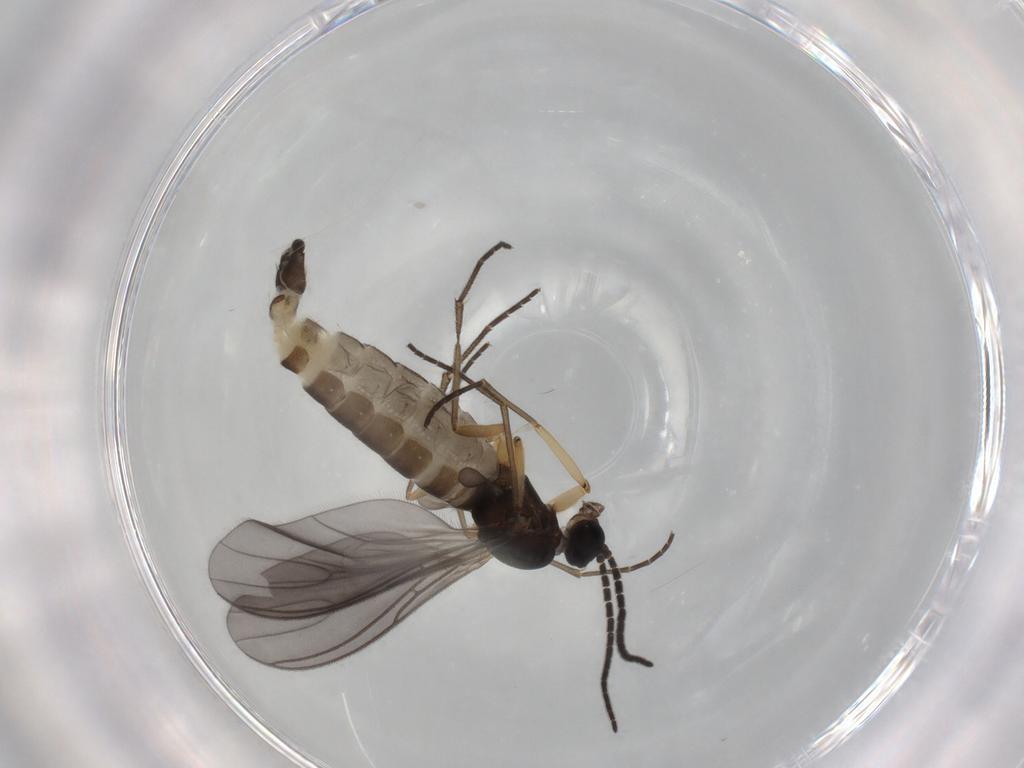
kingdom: Animalia
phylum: Arthropoda
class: Insecta
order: Diptera
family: Sciaridae
